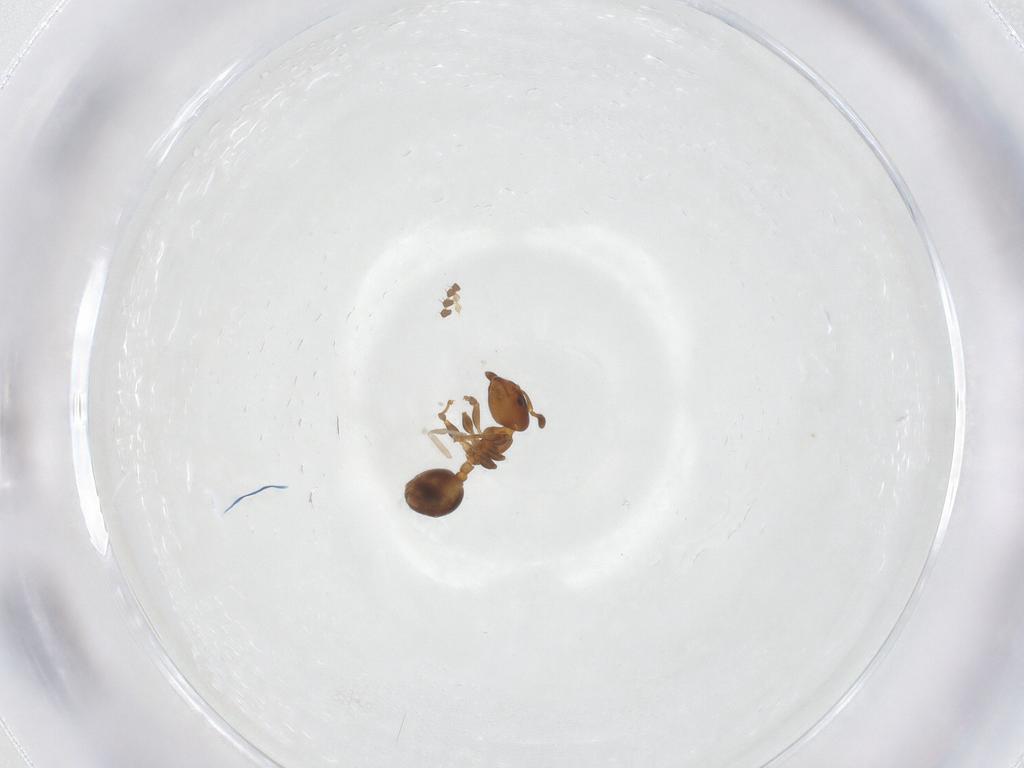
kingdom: Animalia
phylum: Arthropoda
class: Insecta
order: Hymenoptera
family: Formicidae
